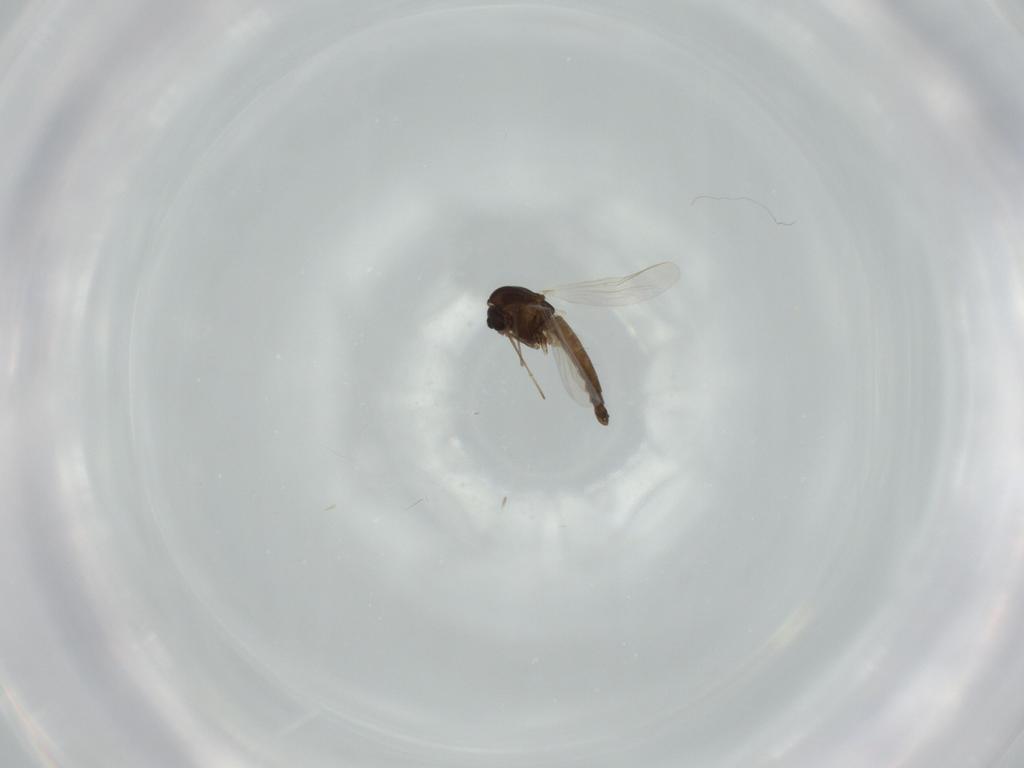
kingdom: Animalia
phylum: Arthropoda
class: Insecta
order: Diptera
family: Chironomidae
